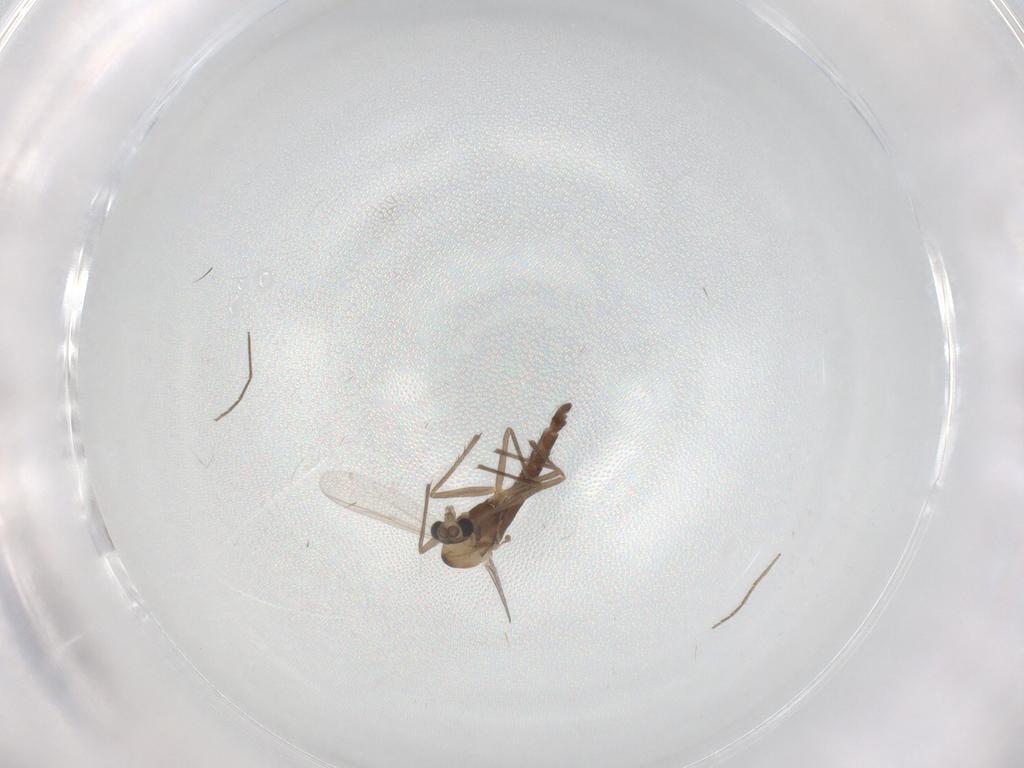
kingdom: Animalia
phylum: Arthropoda
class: Insecta
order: Diptera
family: Chironomidae
